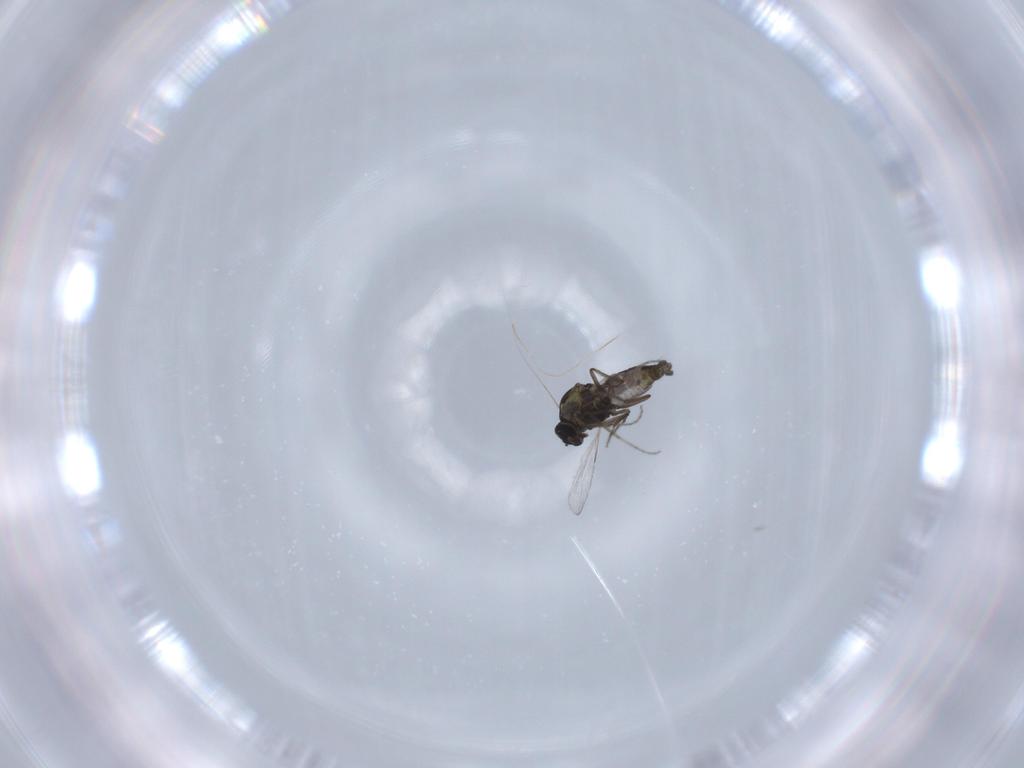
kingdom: Animalia
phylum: Arthropoda
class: Insecta
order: Diptera
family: Ceratopogonidae
